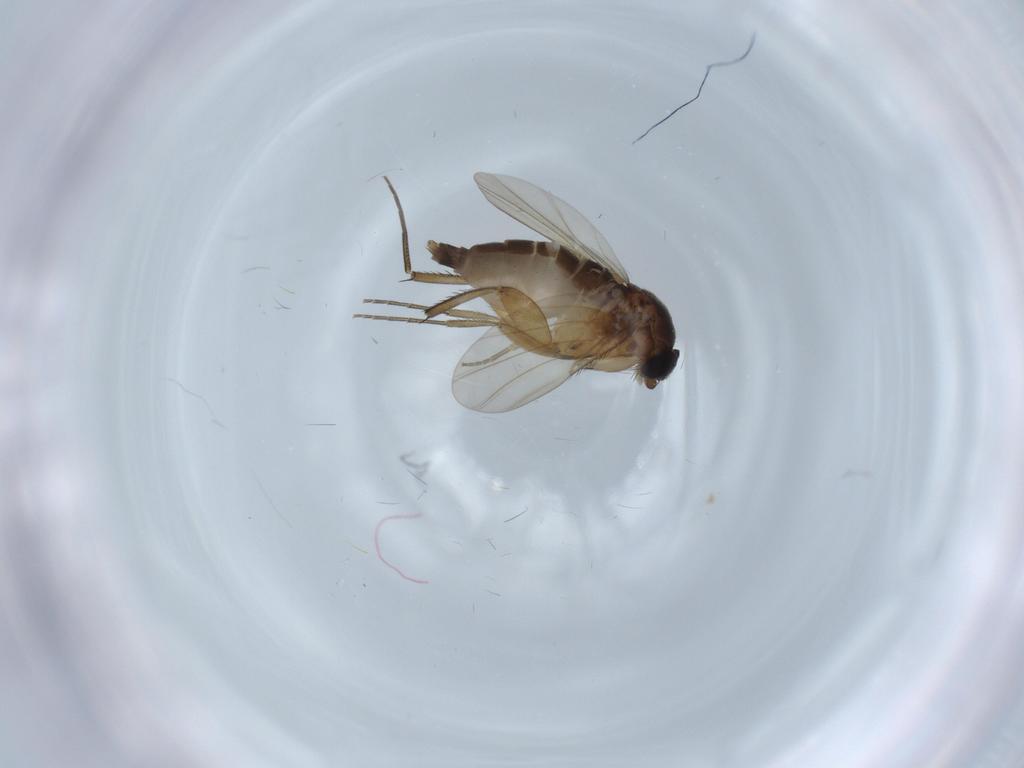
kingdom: Animalia
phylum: Arthropoda
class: Insecta
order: Diptera
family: Phoridae
